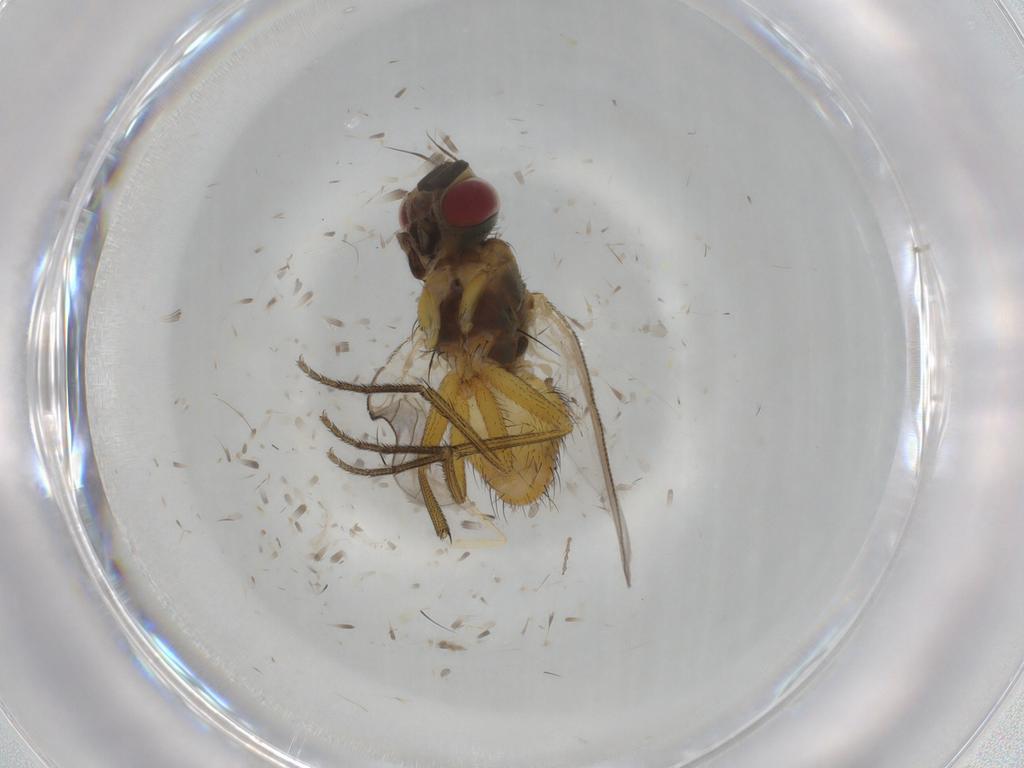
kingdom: Animalia
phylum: Arthropoda
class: Insecta
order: Diptera
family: Muscidae
